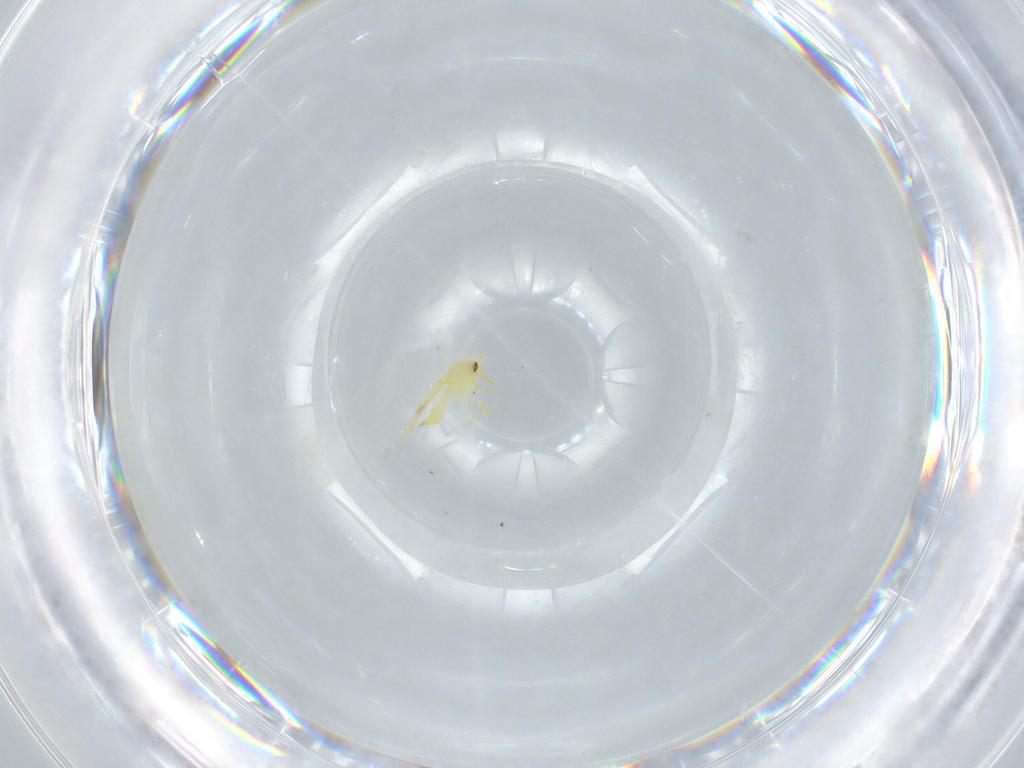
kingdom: Animalia
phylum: Arthropoda
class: Insecta
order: Hemiptera
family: Aleyrodidae
